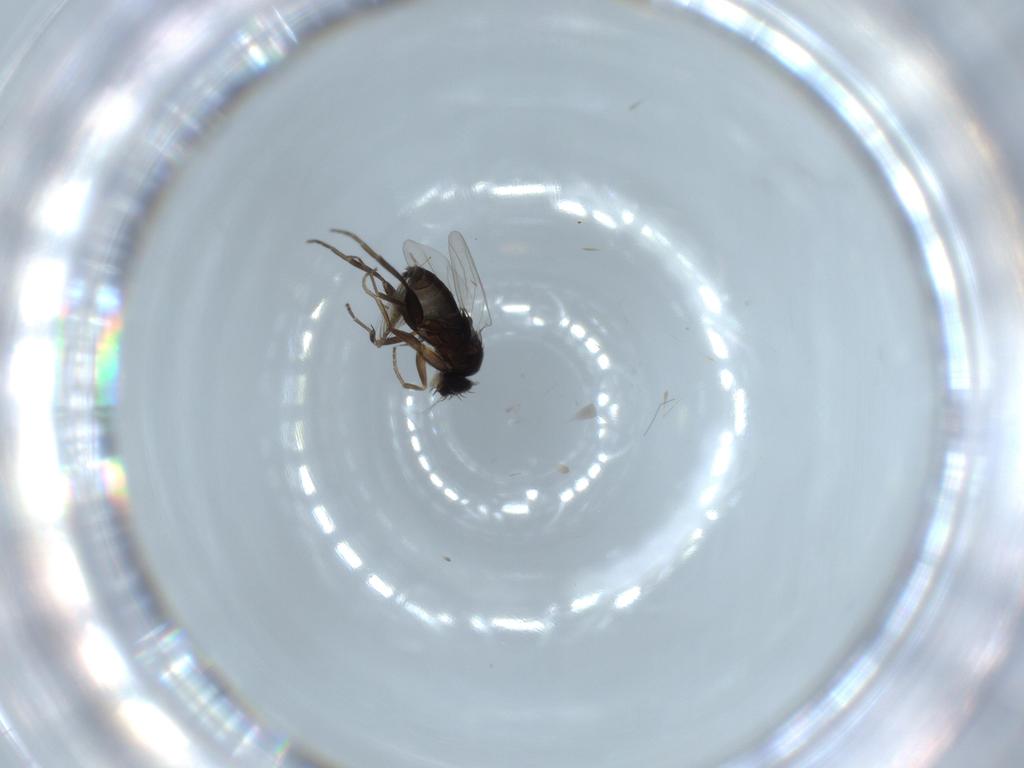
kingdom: Animalia
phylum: Arthropoda
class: Insecta
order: Diptera
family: Phoridae
